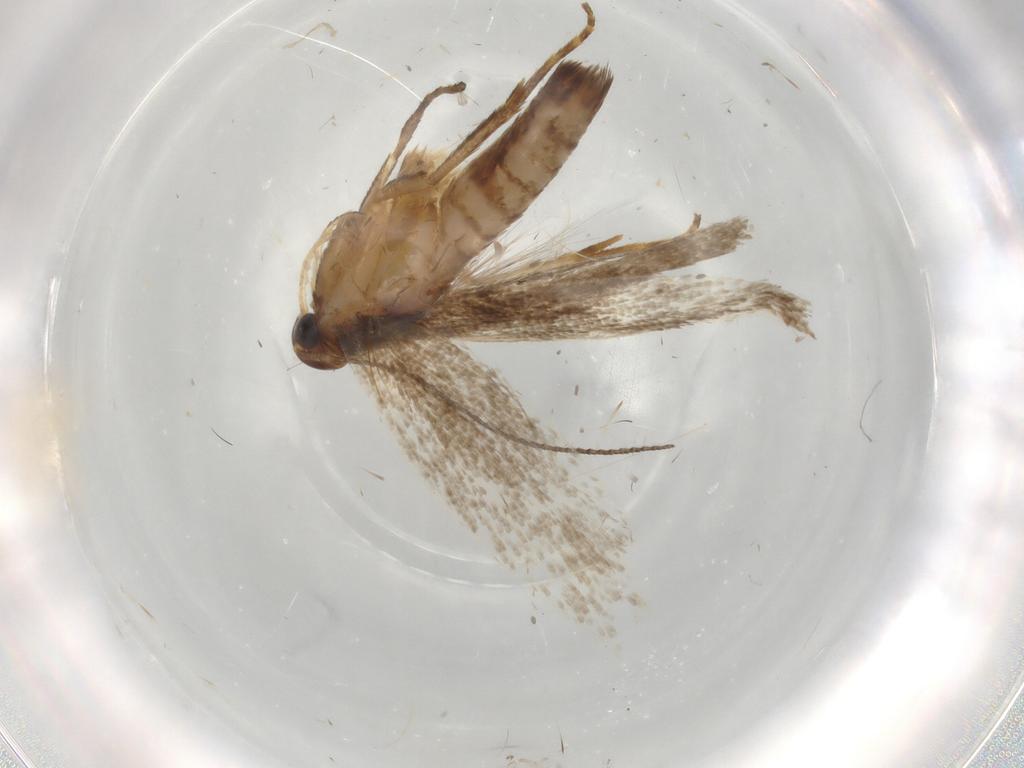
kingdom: Animalia
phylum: Arthropoda
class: Insecta
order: Lepidoptera
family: Gelechiidae
